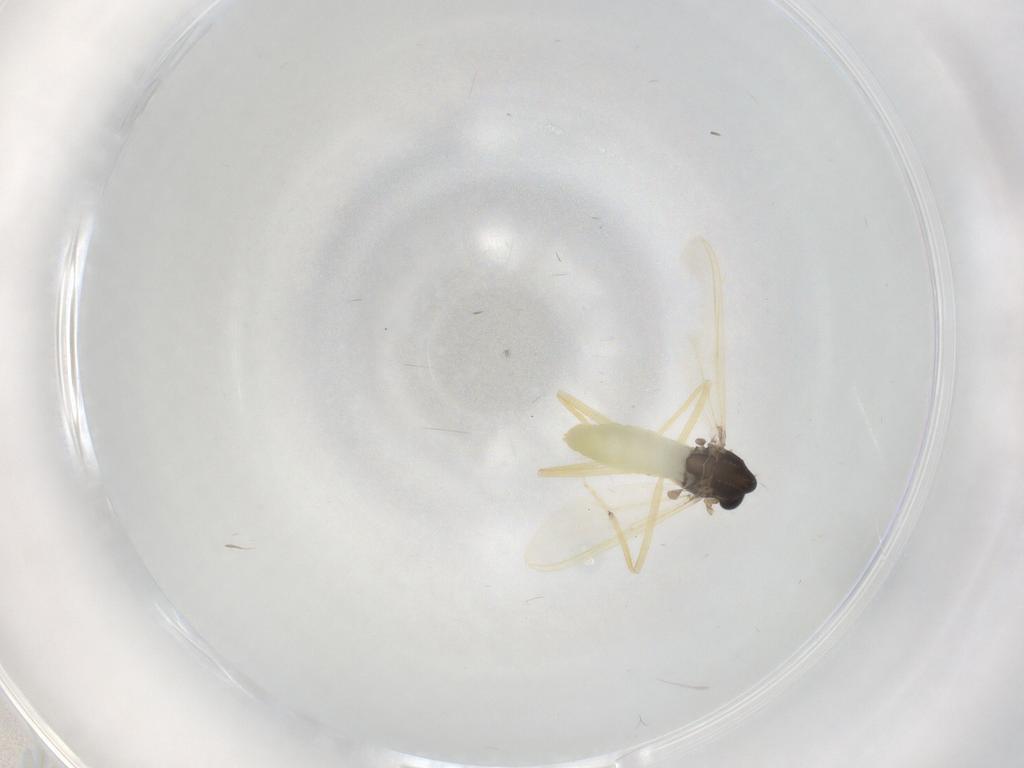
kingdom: Animalia
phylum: Arthropoda
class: Insecta
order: Diptera
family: Chironomidae
